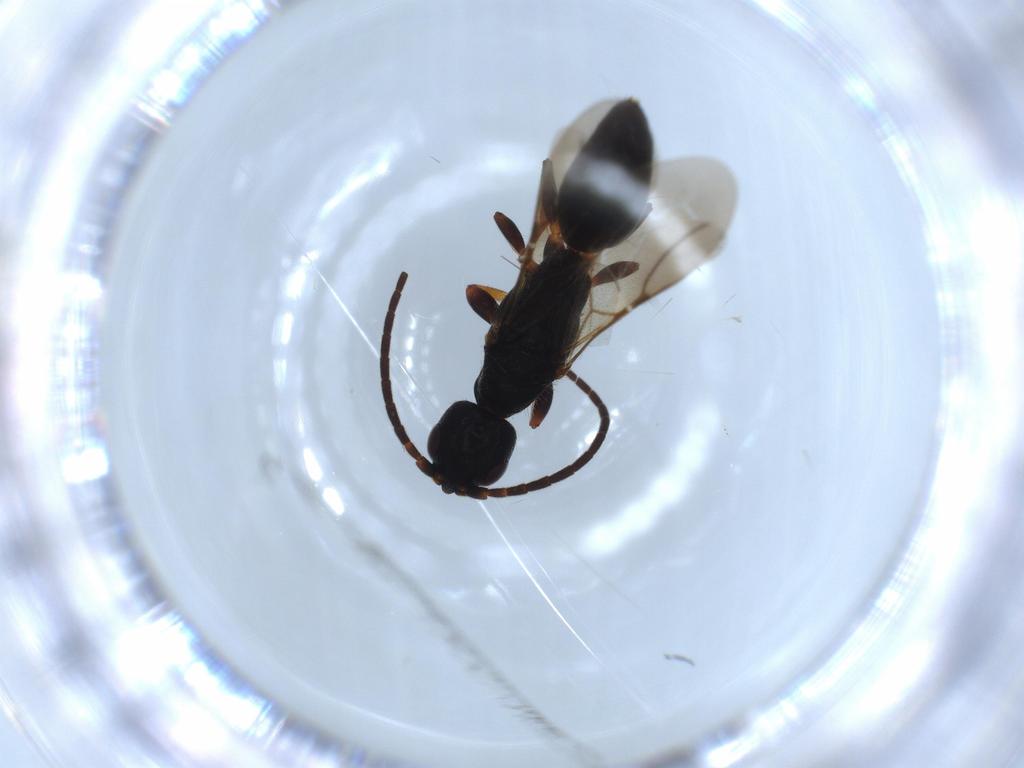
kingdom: Animalia
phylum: Arthropoda
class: Insecta
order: Hymenoptera
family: Bethylidae
